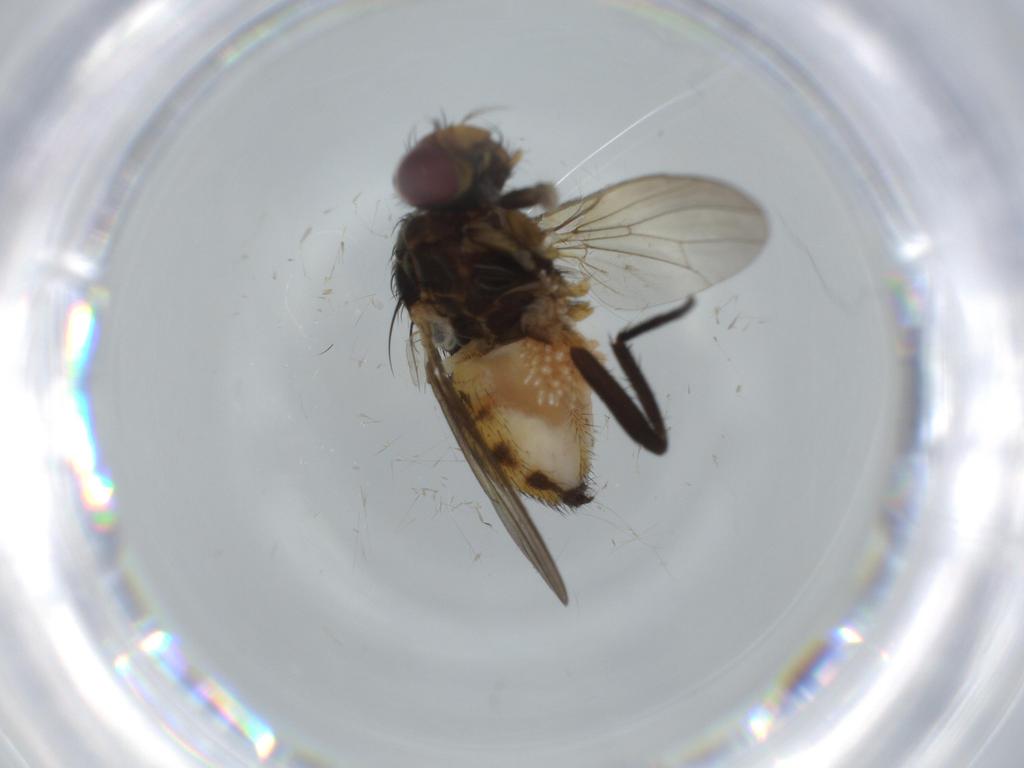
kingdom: Animalia
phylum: Arthropoda
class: Insecta
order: Diptera
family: Anthomyiidae
